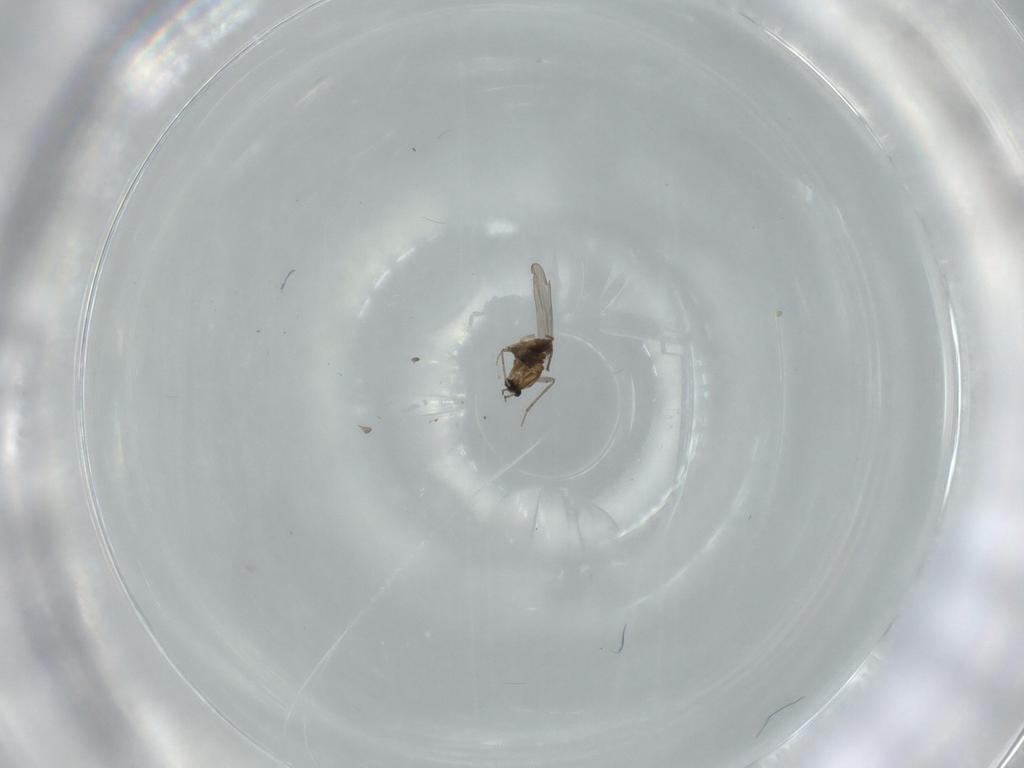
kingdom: Animalia
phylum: Arthropoda
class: Insecta
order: Diptera
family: Chironomidae
